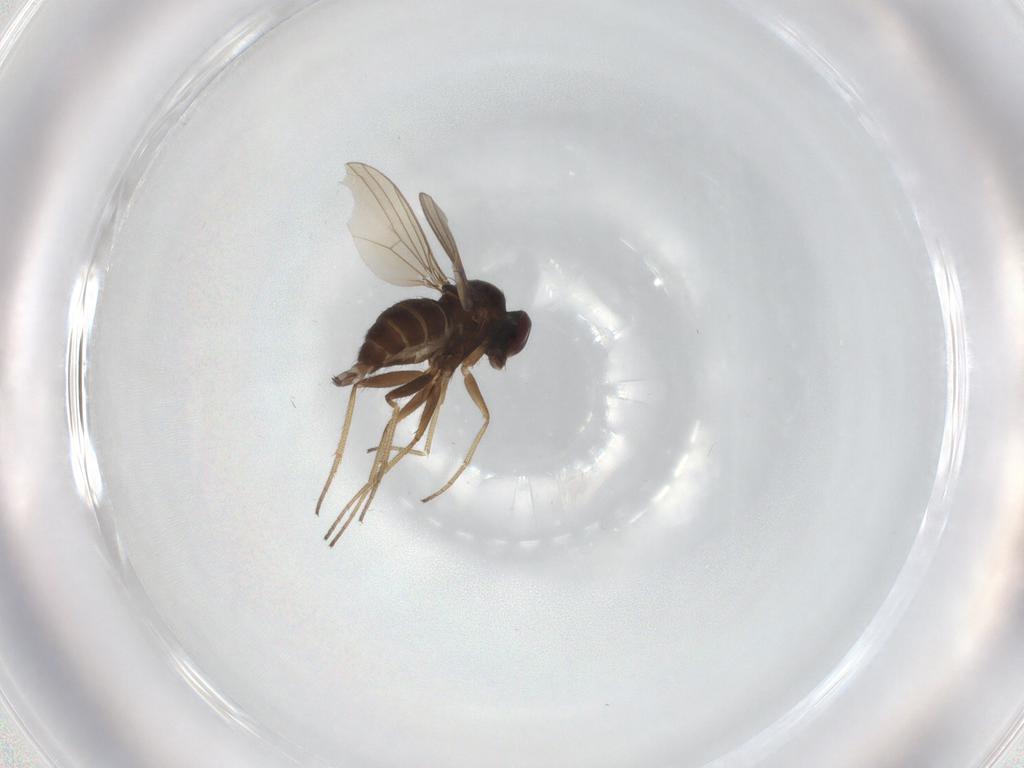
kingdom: Animalia
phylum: Arthropoda
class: Insecta
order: Diptera
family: Dolichopodidae
